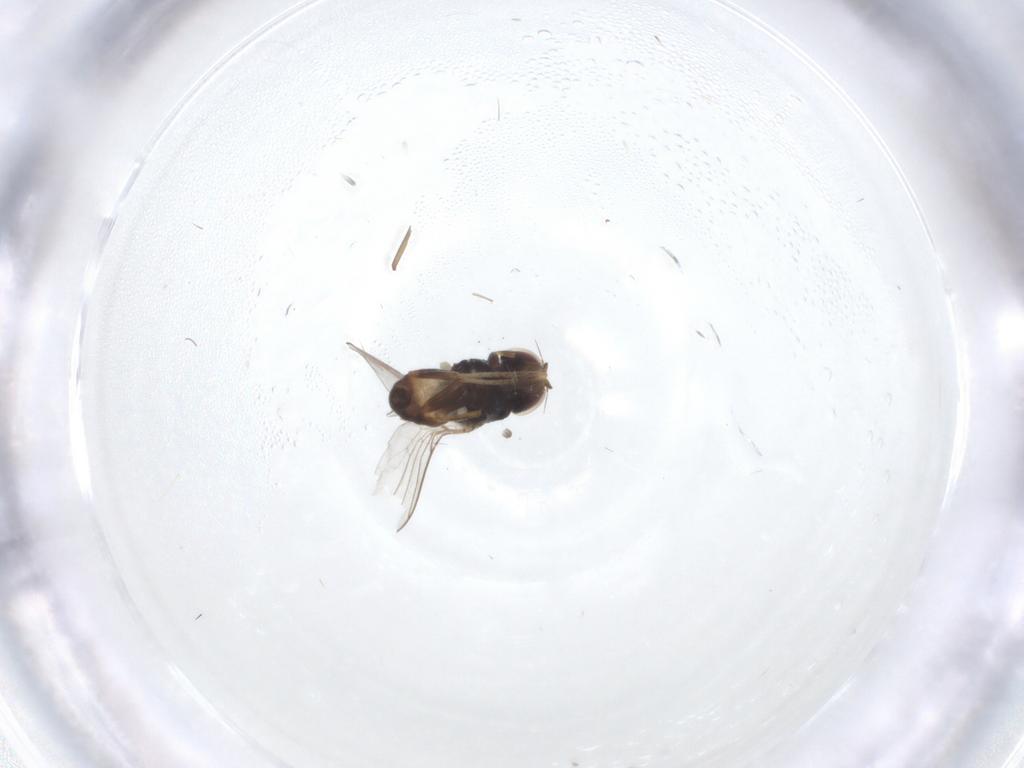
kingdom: Animalia
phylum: Arthropoda
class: Insecta
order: Diptera
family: Chloropidae
